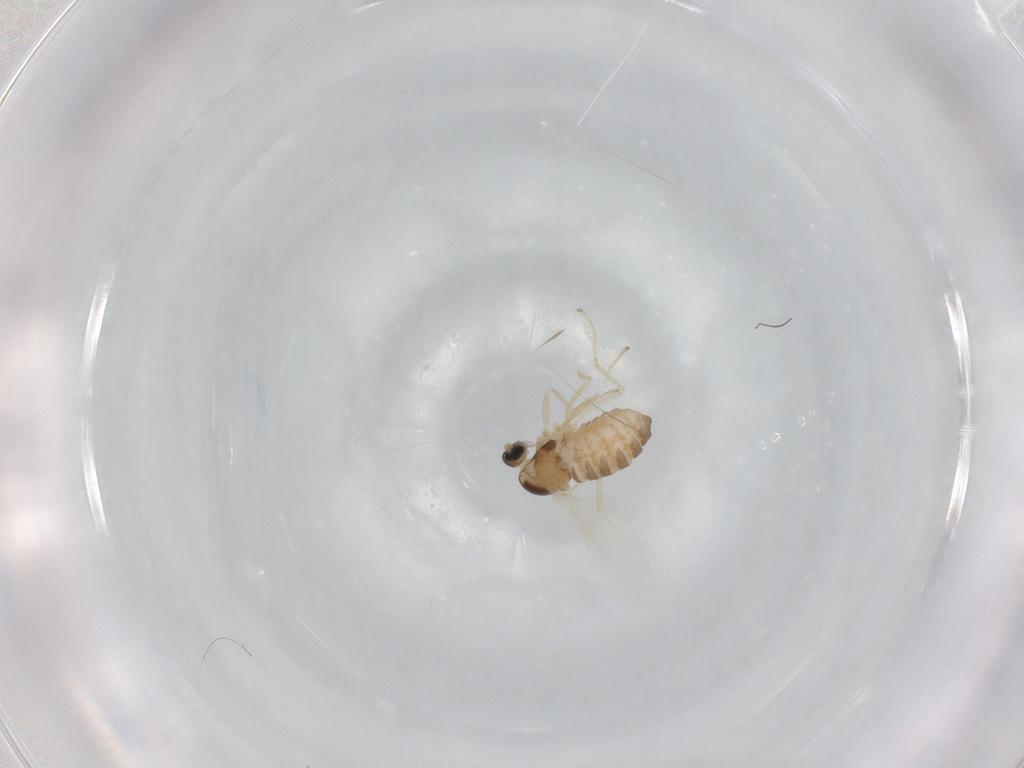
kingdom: Animalia
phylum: Arthropoda
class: Insecta
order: Diptera
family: Cecidomyiidae
